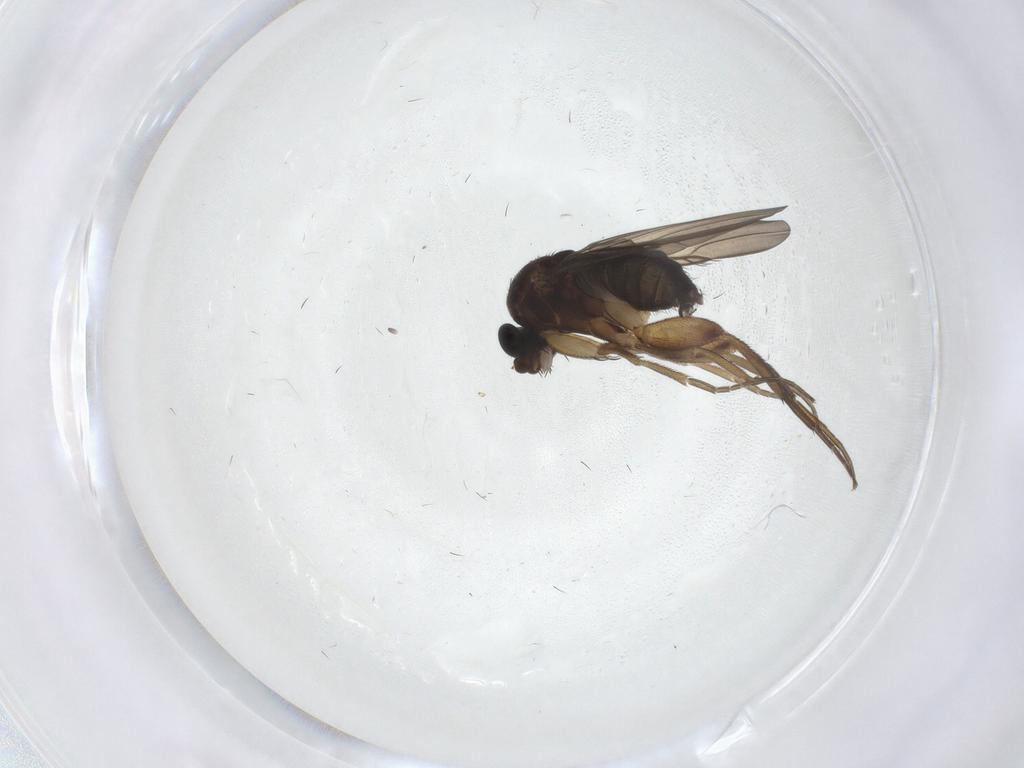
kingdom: Animalia
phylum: Arthropoda
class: Insecta
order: Diptera
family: Phoridae
